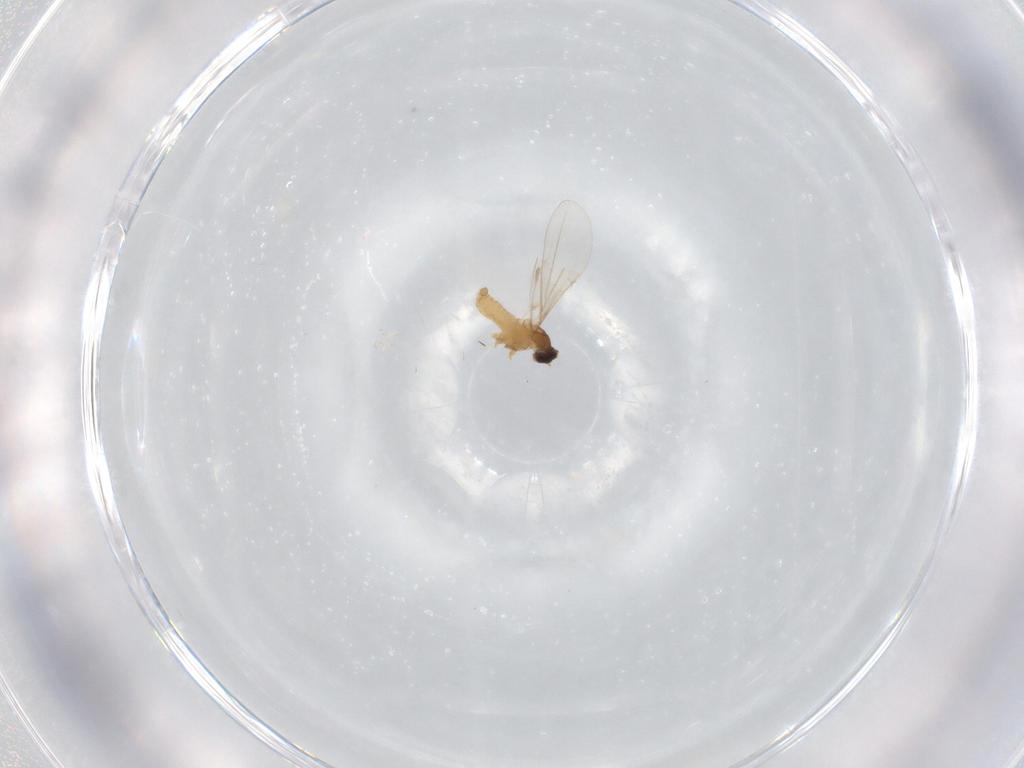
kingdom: Animalia
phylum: Arthropoda
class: Insecta
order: Diptera
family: Cecidomyiidae
